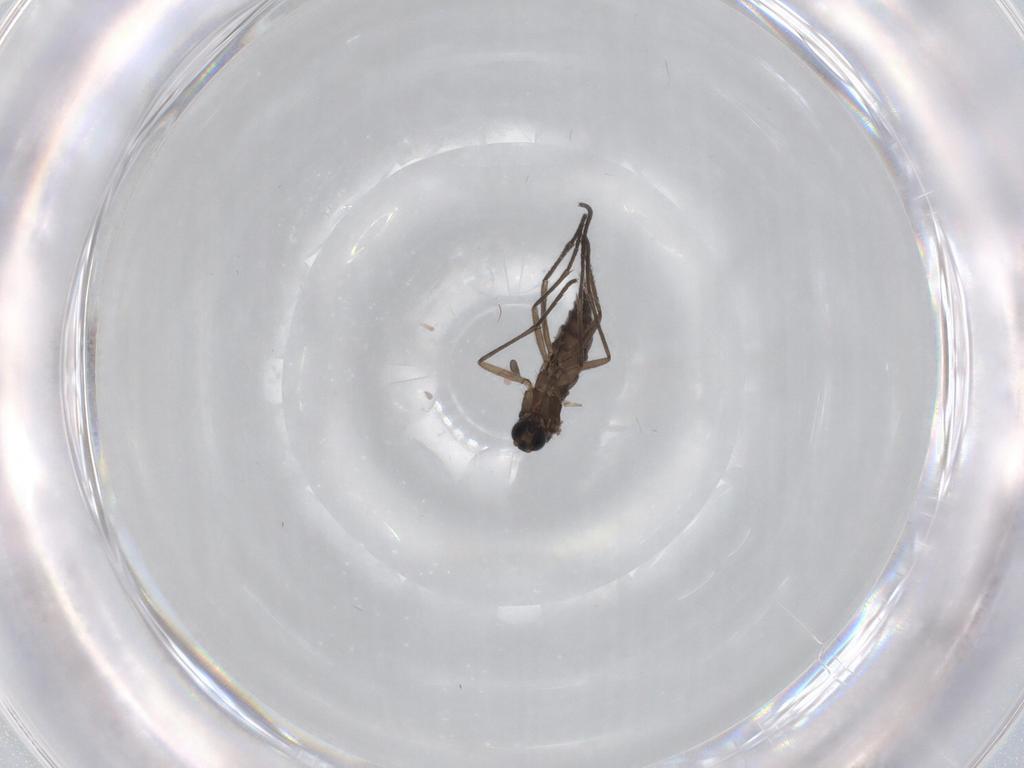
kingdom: Animalia
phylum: Arthropoda
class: Insecta
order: Diptera
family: Sciaridae
